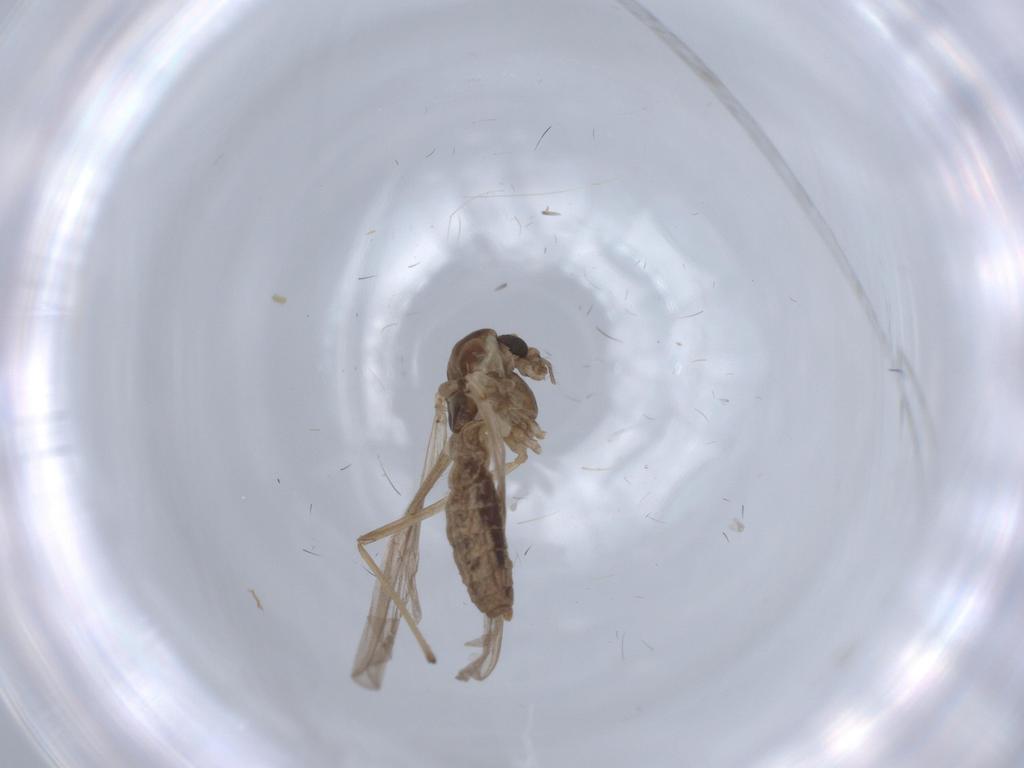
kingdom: Animalia
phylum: Arthropoda
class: Insecta
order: Diptera
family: Chironomidae
